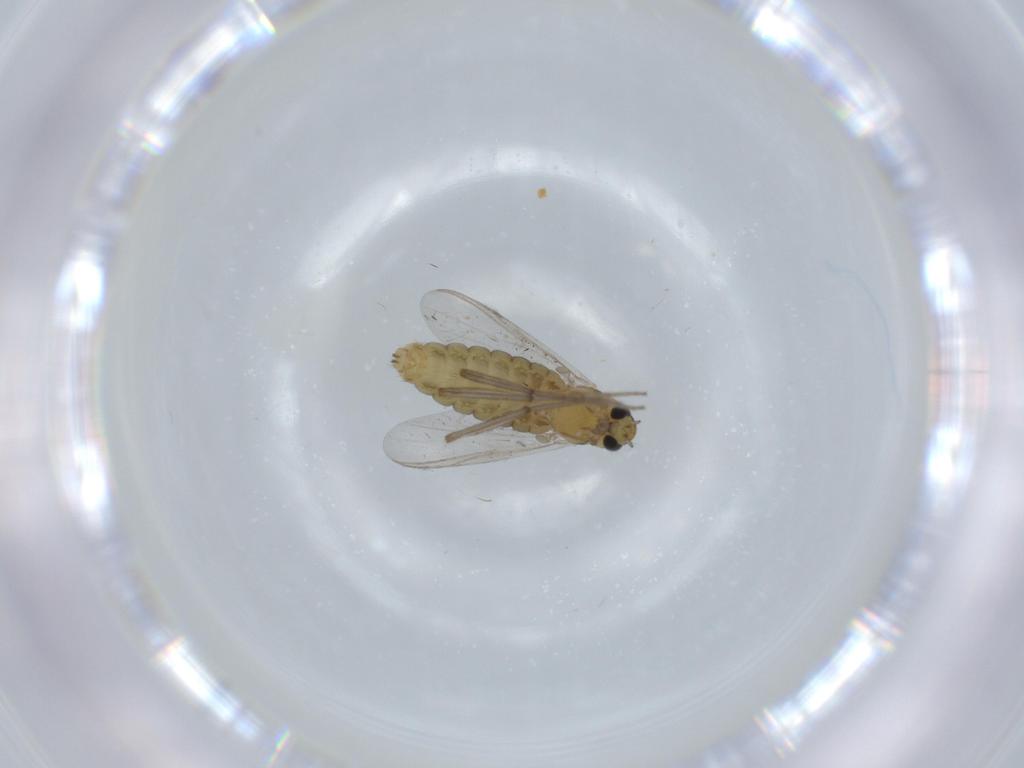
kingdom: Animalia
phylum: Arthropoda
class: Insecta
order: Diptera
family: Chironomidae
